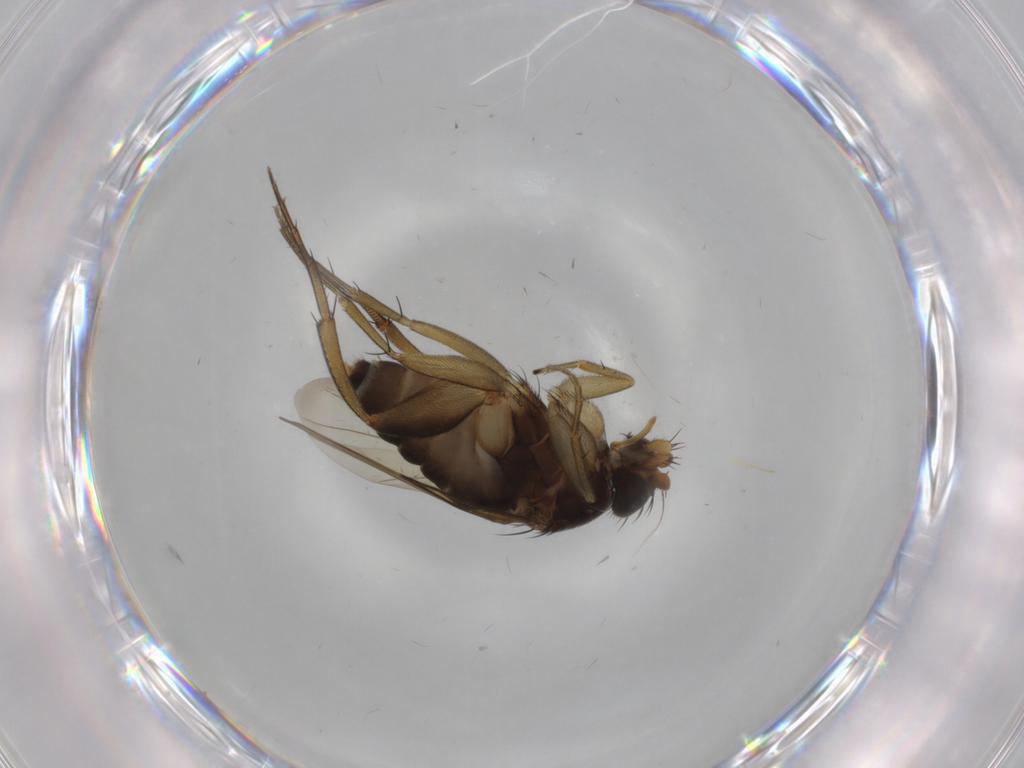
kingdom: Animalia
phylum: Arthropoda
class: Insecta
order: Diptera
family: Phoridae
